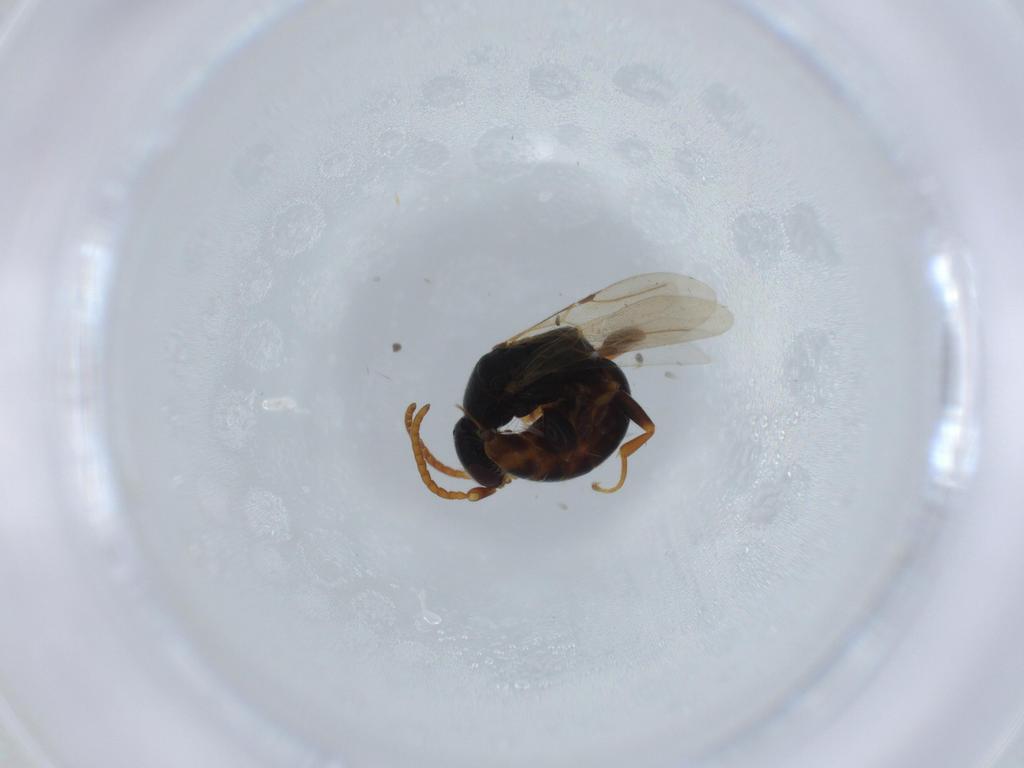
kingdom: Animalia
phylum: Arthropoda
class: Insecta
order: Hymenoptera
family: Bethylidae
